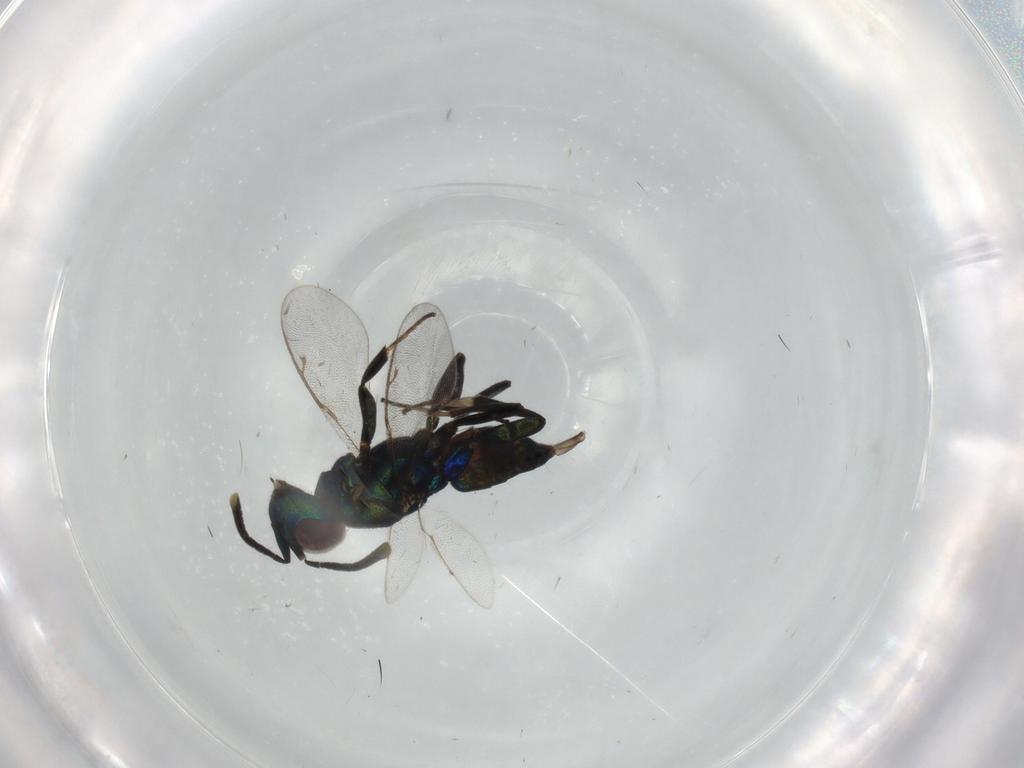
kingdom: Animalia
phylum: Arthropoda
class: Insecta
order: Hymenoptera
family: Eupelmidae
